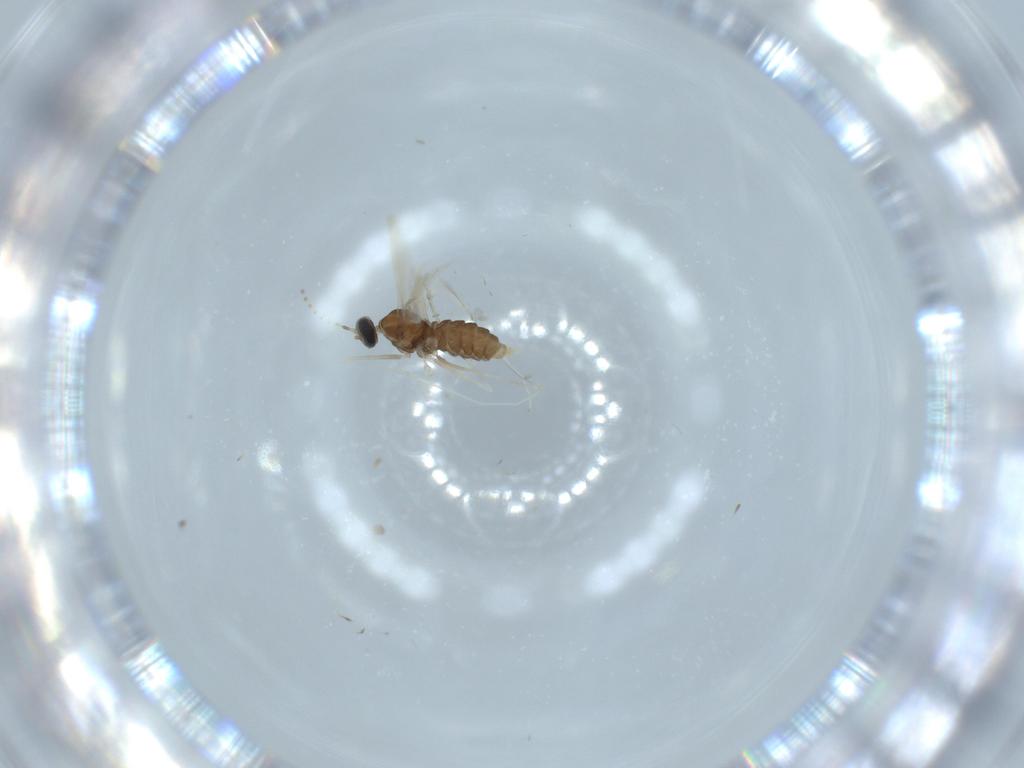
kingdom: Animalia
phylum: Arthropoda
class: Insecta
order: Diptera
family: Cecidomyiidae
